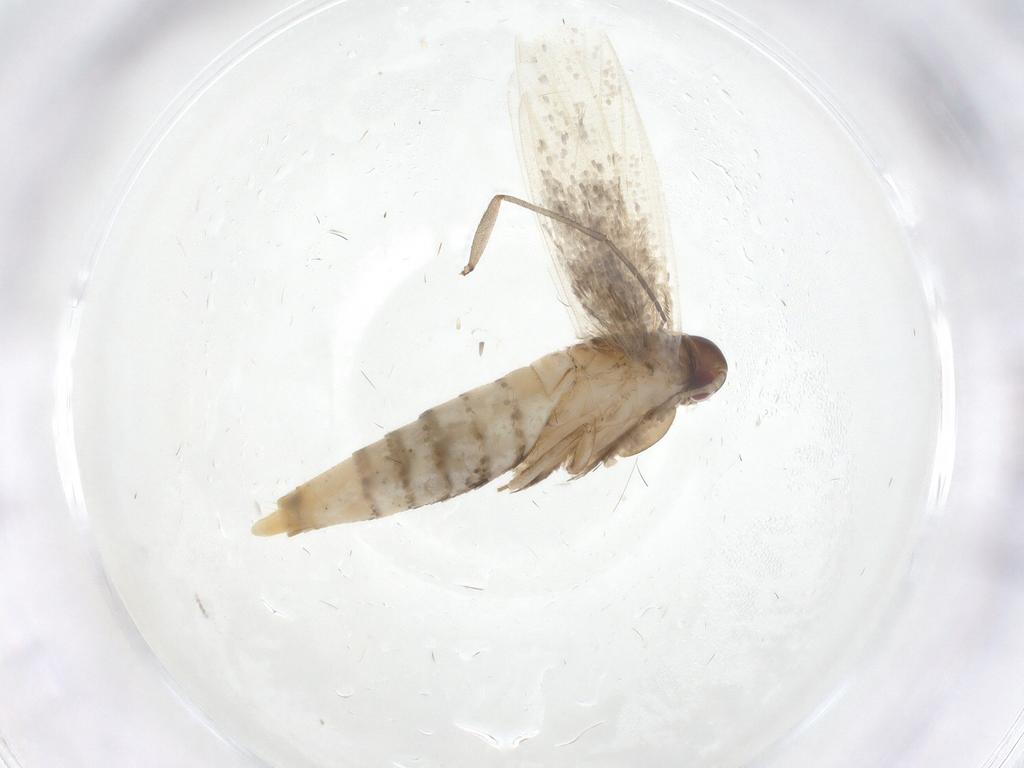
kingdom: Animalia
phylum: Arthropoda
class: Insecta
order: Lepidoptera
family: Gelechiidae
